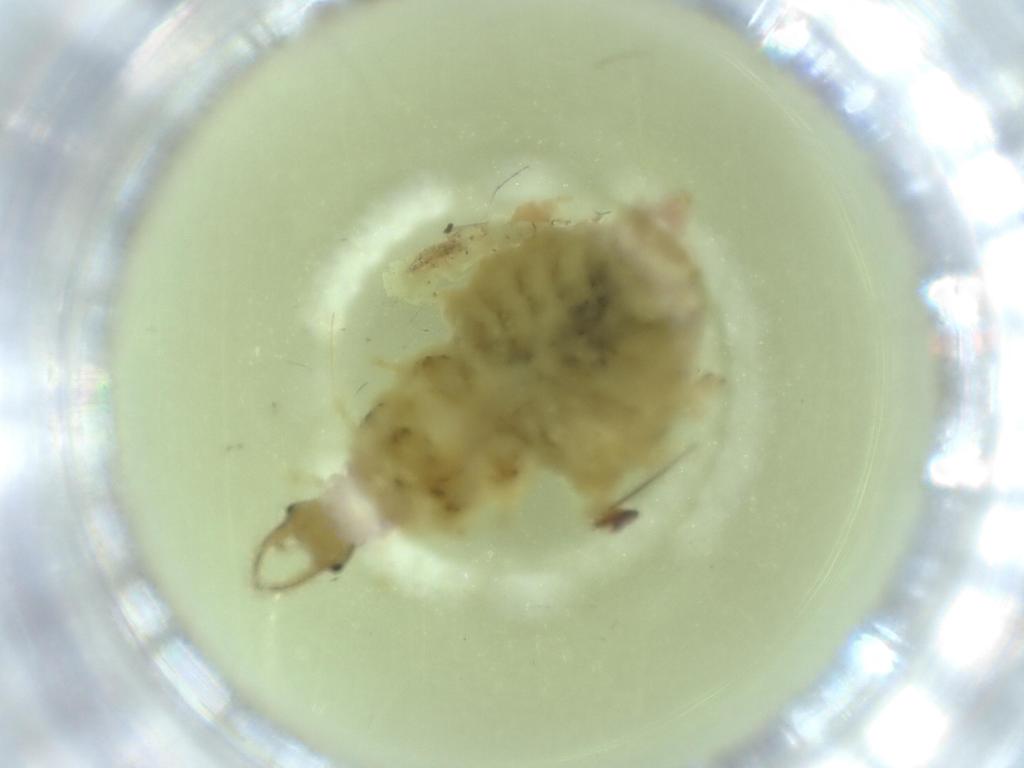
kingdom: Animalia
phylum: Arthropoda
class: Insecta
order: Neuroptera
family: Chrysopidae
